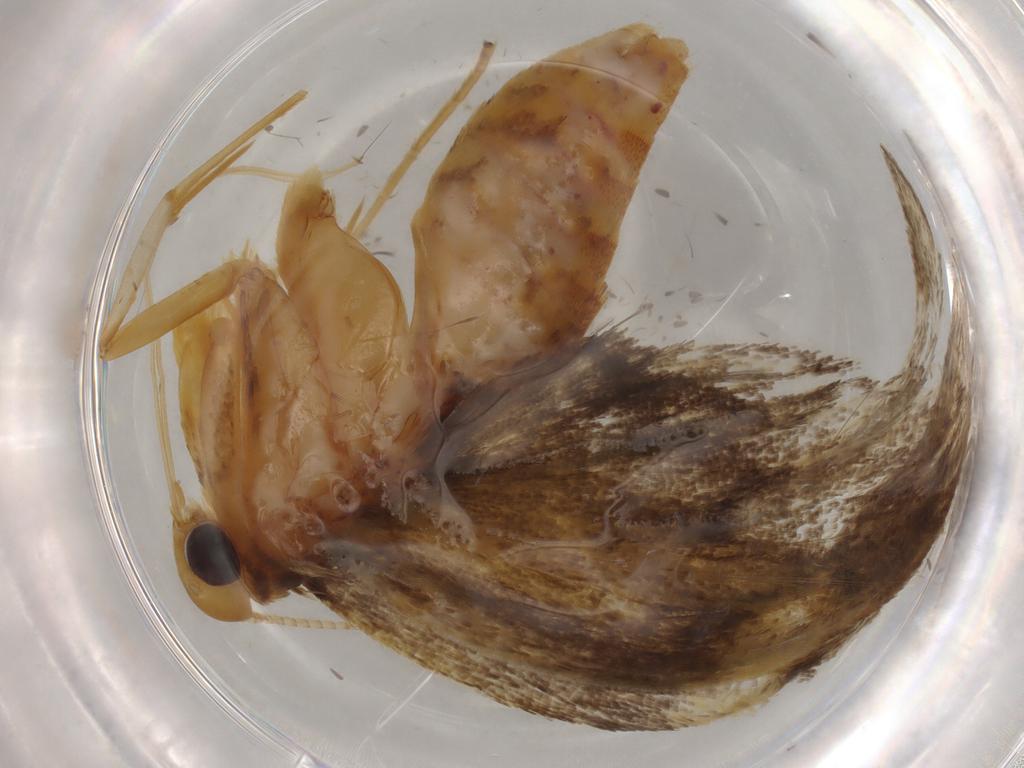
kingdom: Animalia
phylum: Arthropoda
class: Insecta
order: Lepidoptera
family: Lecithoceridae
